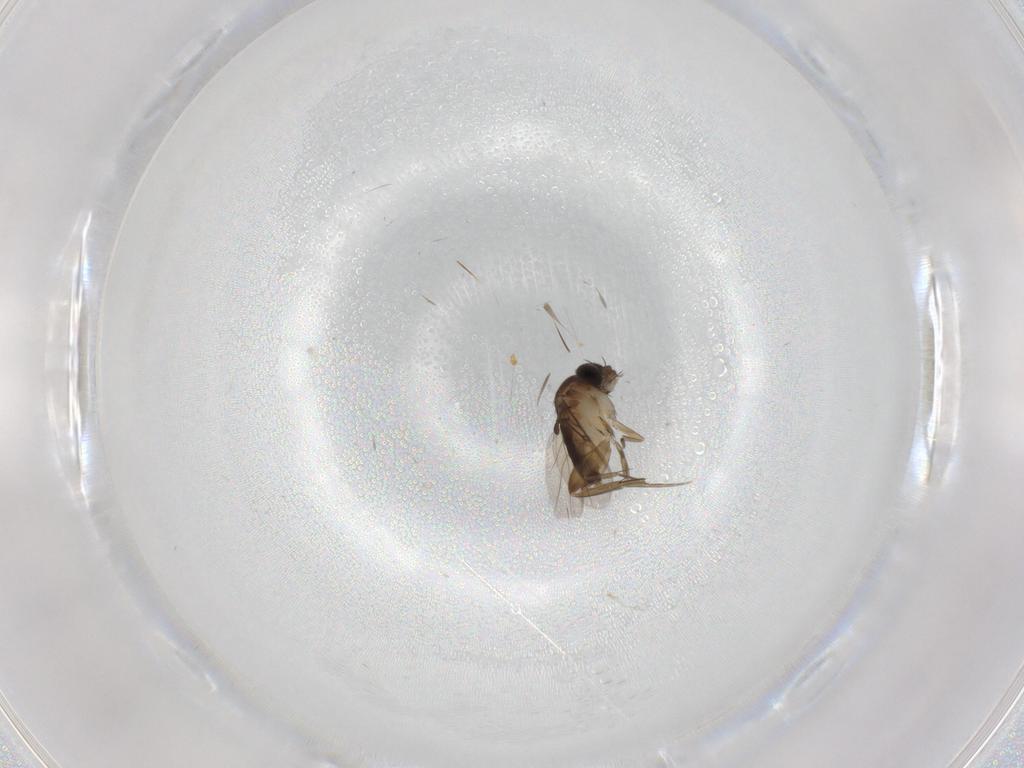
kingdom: Animalia
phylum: Arthropoda
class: Insecta
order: Diptera
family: Phoridae
